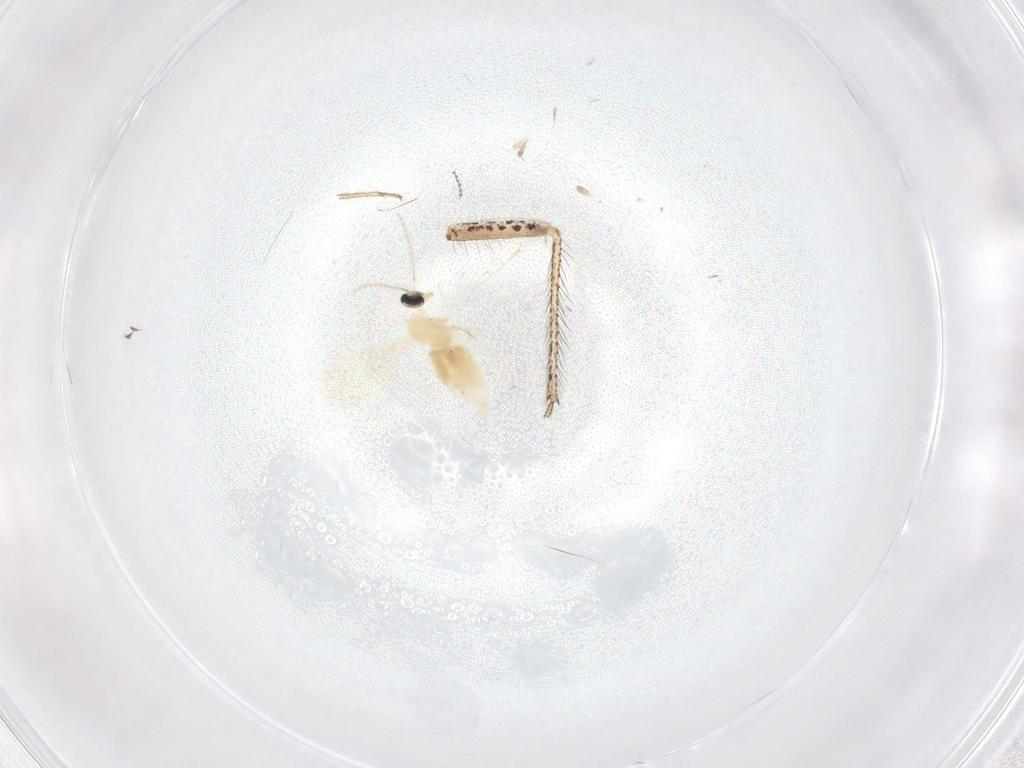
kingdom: Animalia
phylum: Arthropoda
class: Insecta
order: Diptera
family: Cecidomyiidae
